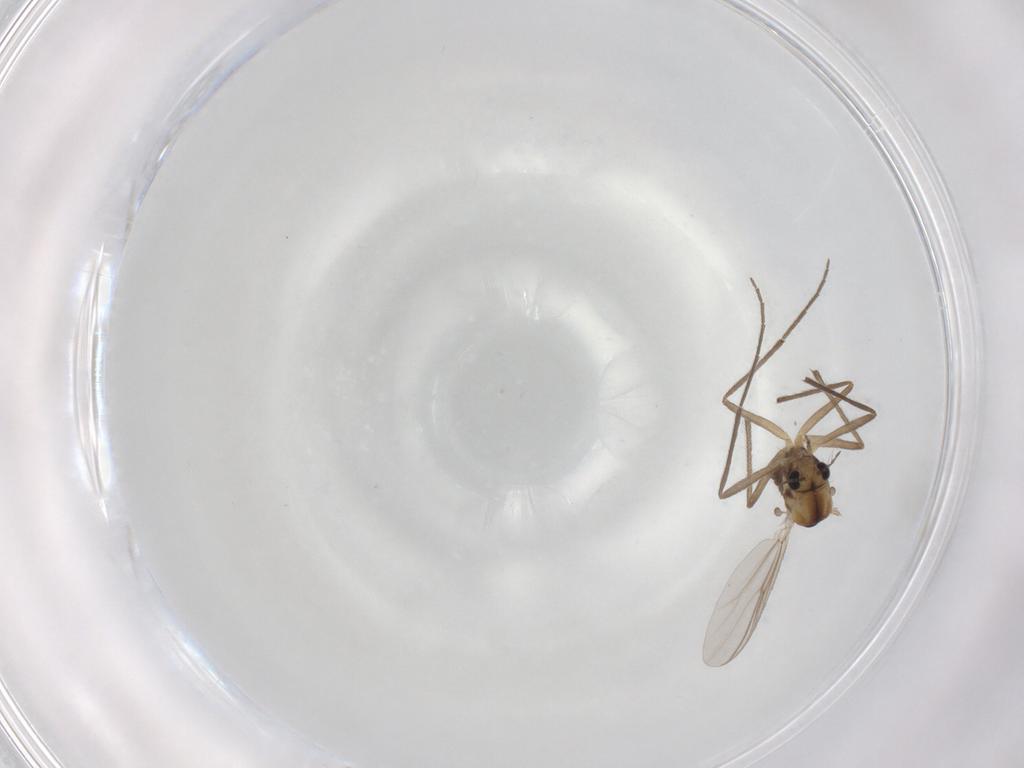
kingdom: Animalia
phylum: Arthropoda
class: Insecta
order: Diptera
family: Chironomidae
